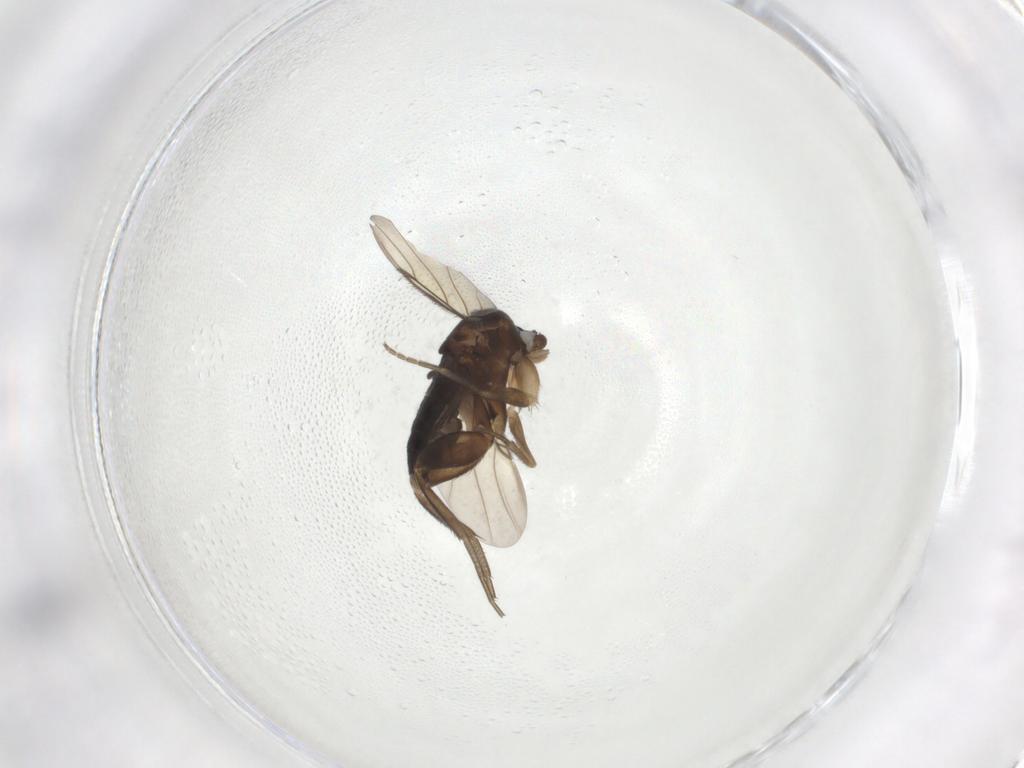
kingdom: Animalia
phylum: Arthropoda
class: Insecta
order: Diptera
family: Phoridae
